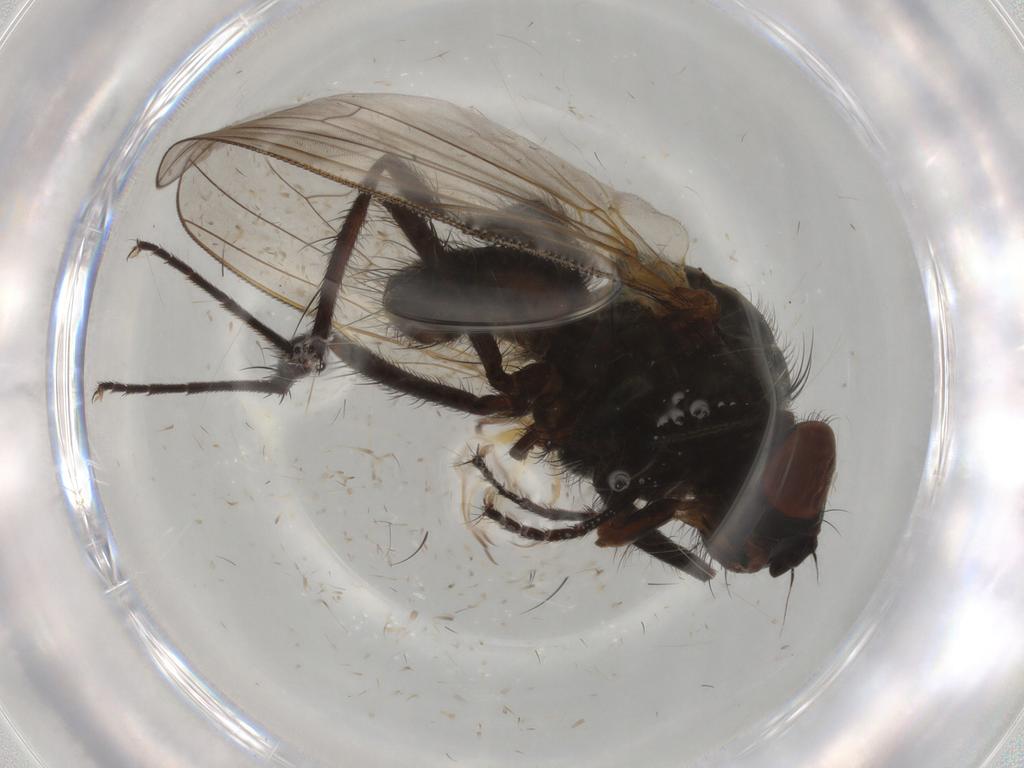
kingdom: Animalia
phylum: Arthropoda
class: Insecta
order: Diptera
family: Anthomyiidae
